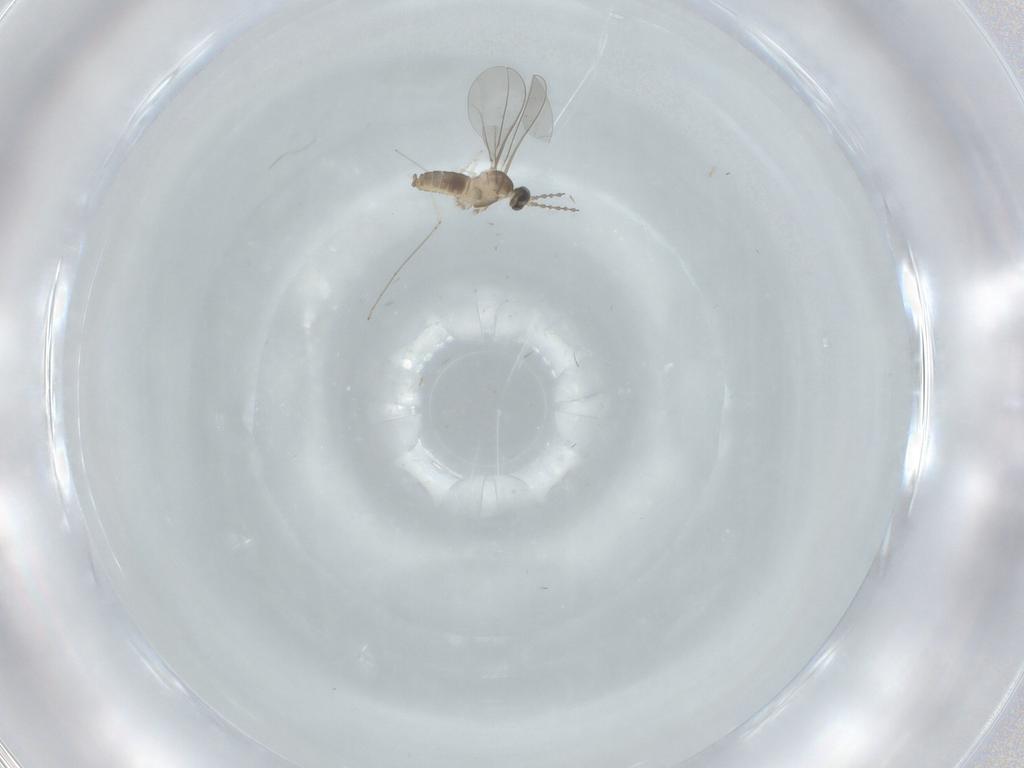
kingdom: Animalia
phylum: Arthropoda
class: Insecta
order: Diptera
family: Cecidomyiidae
